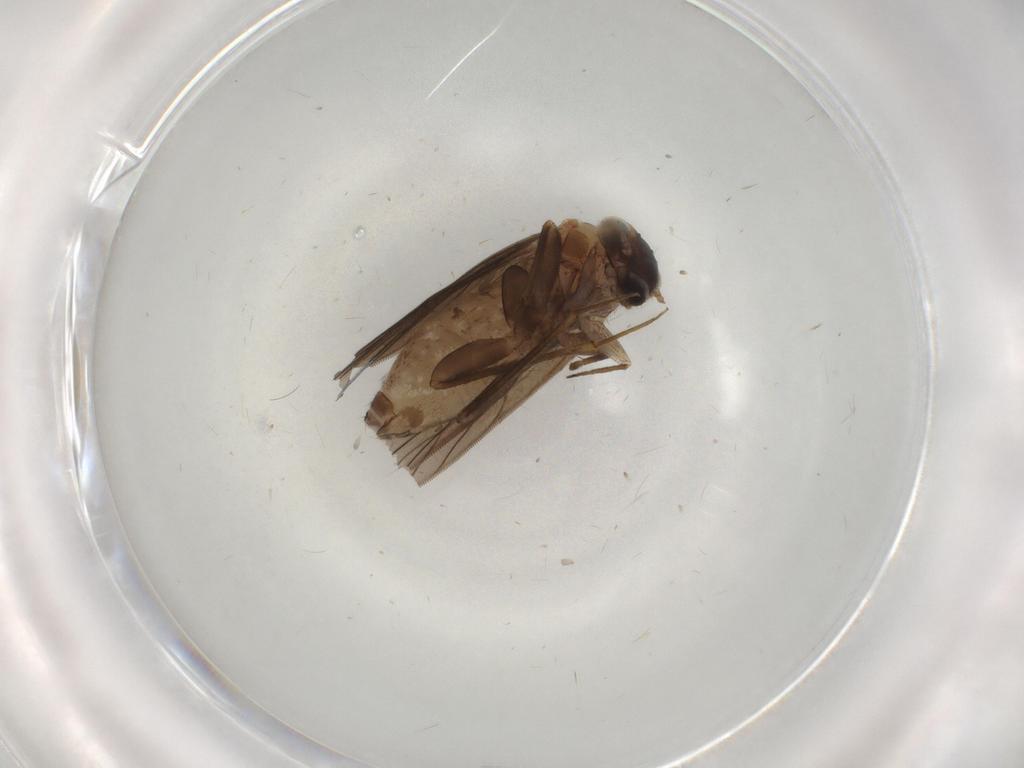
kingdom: Animalia
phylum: Arthropoda
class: Insecta
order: Psocodea
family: Lepidopsocidae
